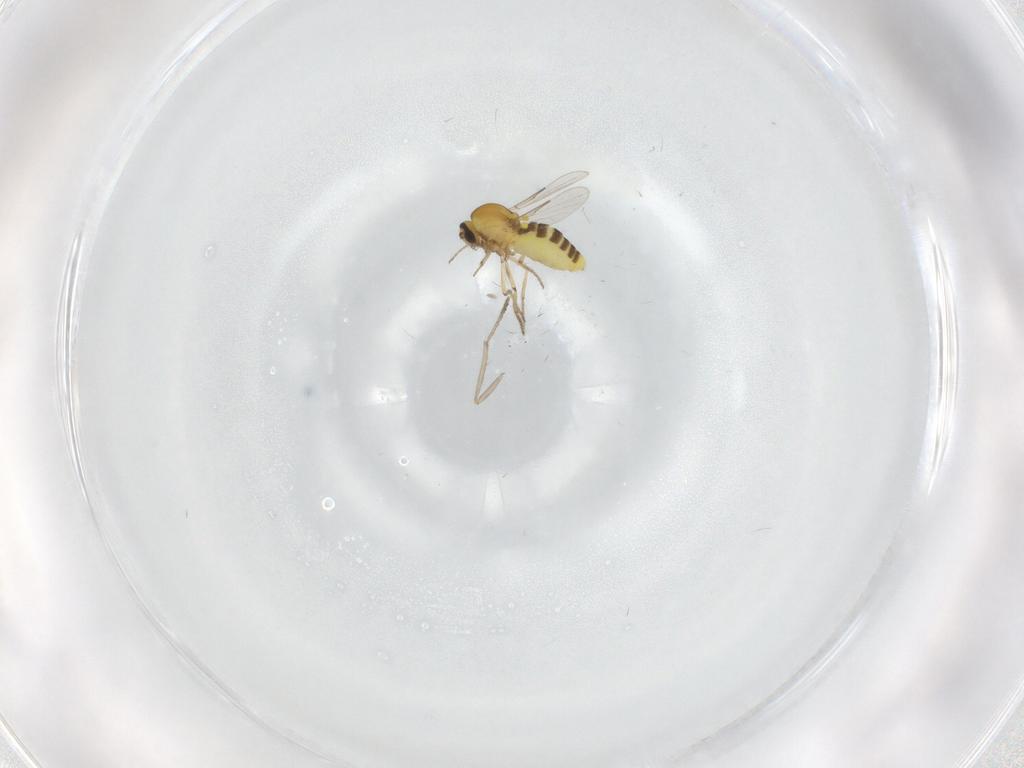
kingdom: Animalia
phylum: Arthropoda
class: Insecta
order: Diptera
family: Ceratopogonidae
